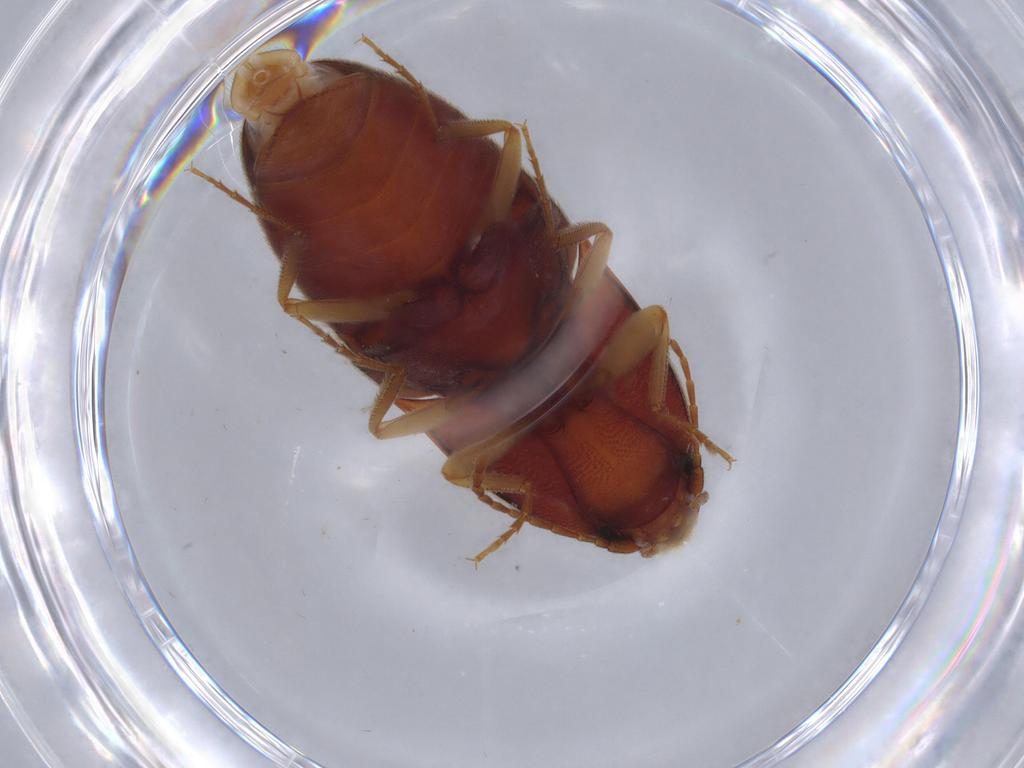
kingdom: Animalia
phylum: Arthropoda
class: Insecta
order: Coleoptera
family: Elateridae
